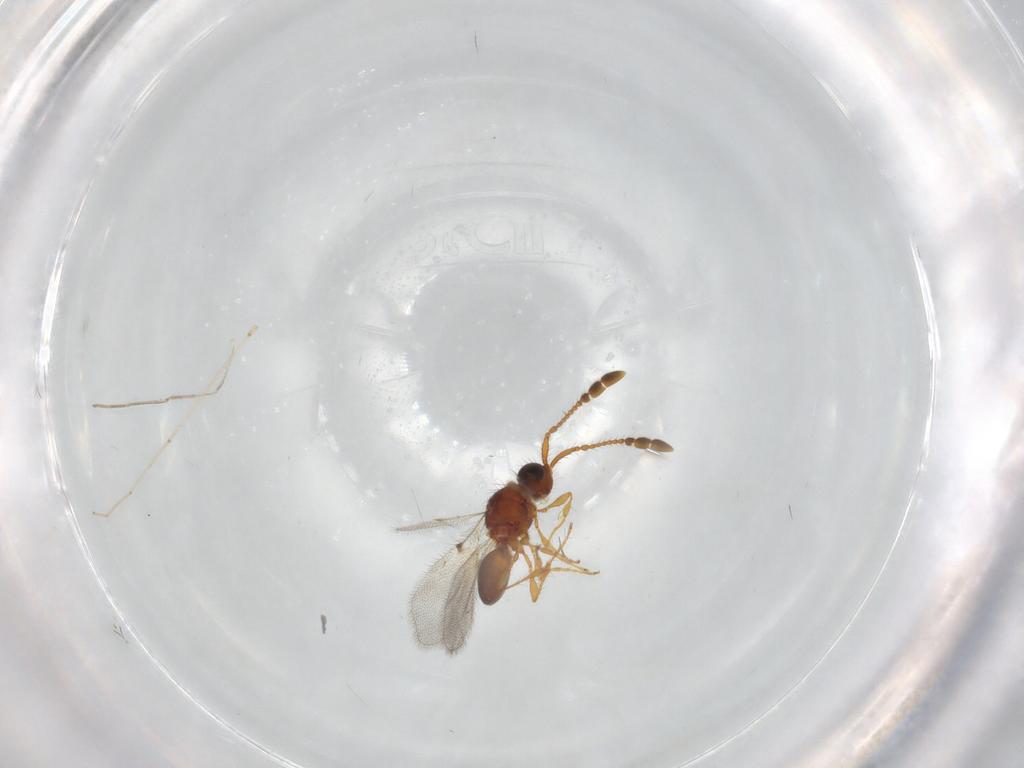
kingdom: Animalia
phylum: Arthropoda
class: Insecta
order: Hymenoptera
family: Diapriidae
